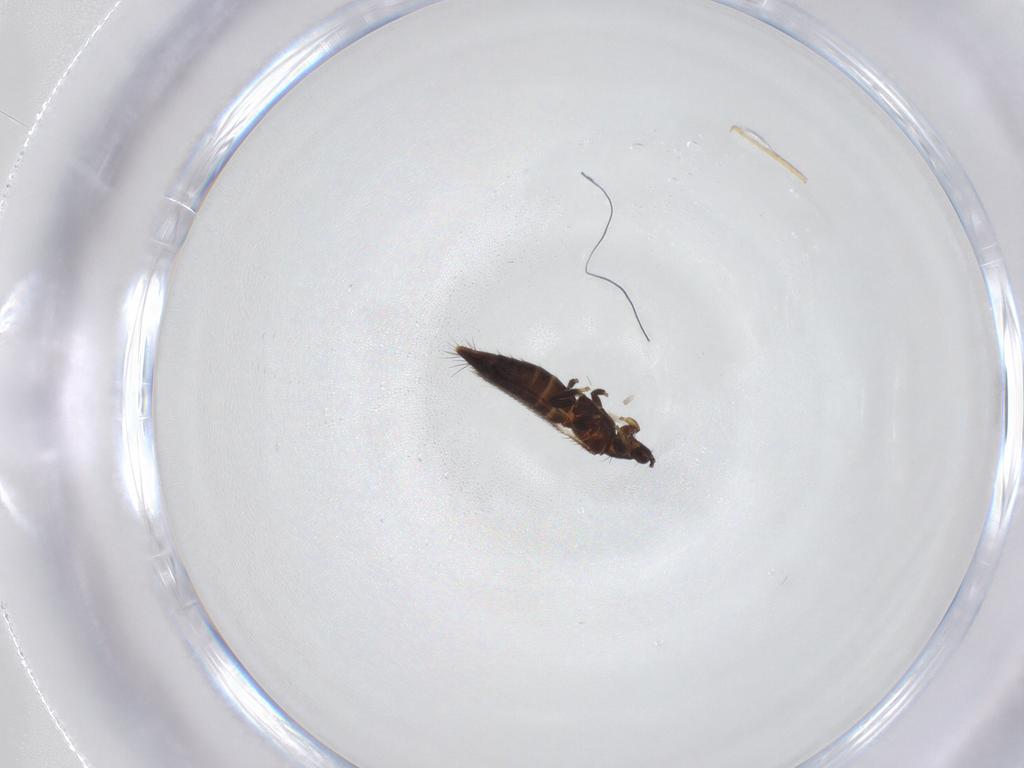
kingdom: Animalia
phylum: Arthropoda
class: Insecta
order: Thysanoptera
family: Thripidae
